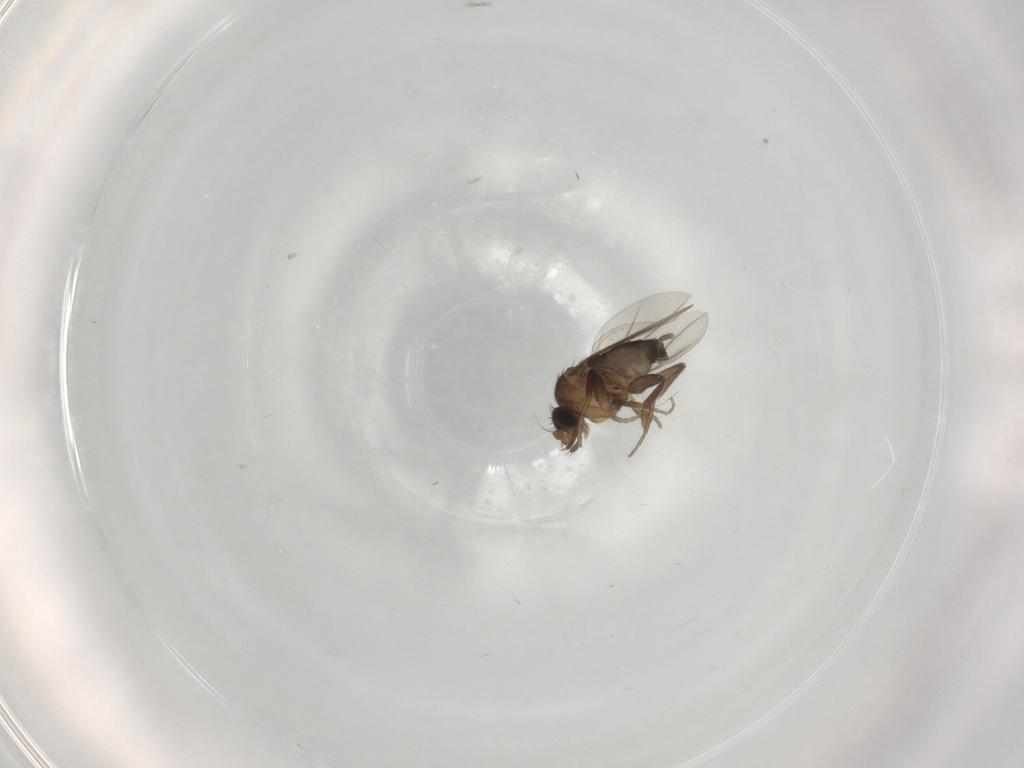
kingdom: Animalia
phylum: Arthropoda
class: Insecta
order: Diptera
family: Phoridae
